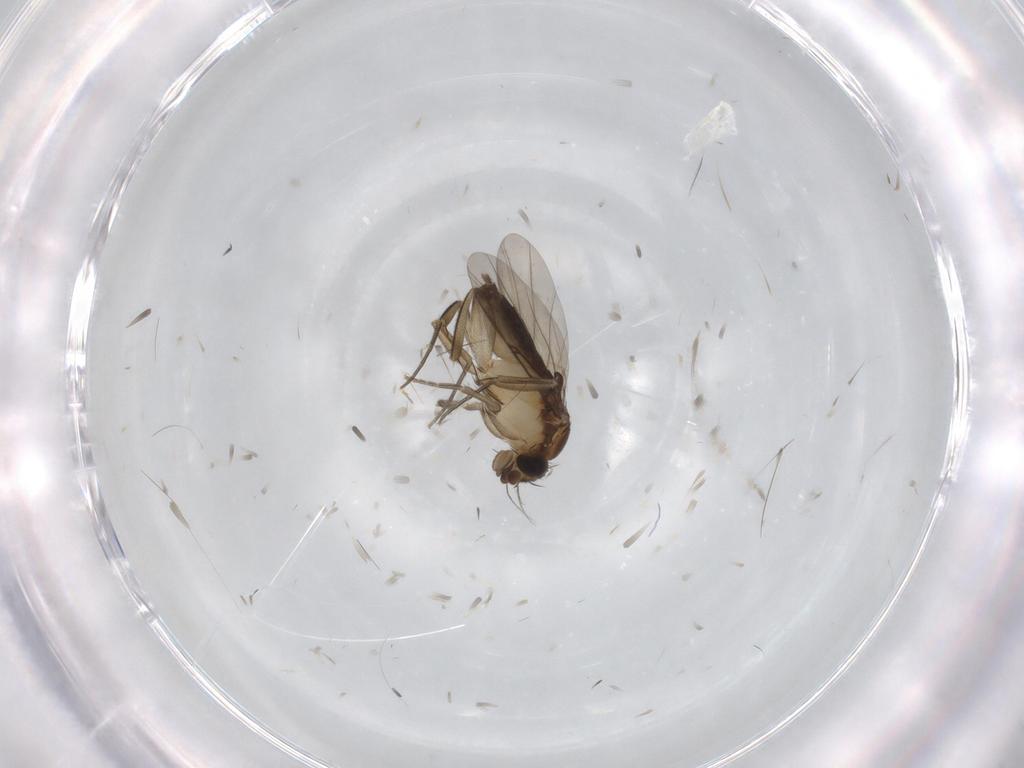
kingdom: Animalia
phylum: Arthropoda
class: Insecta
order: Diptera
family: Phoridae
